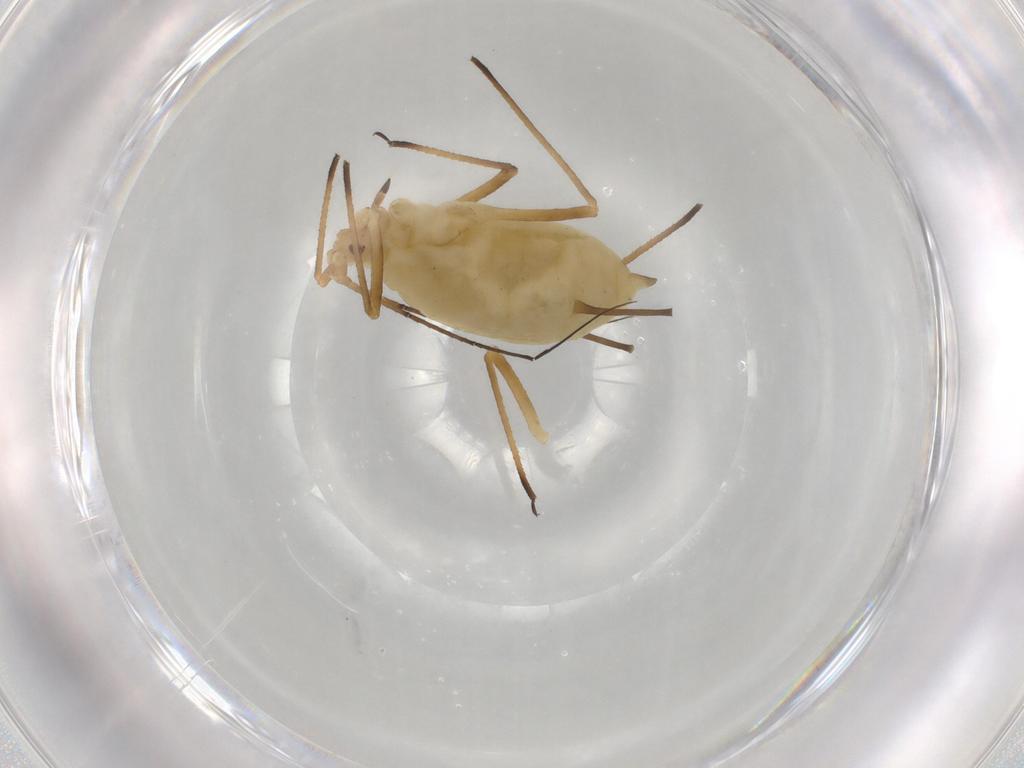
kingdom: Animalia
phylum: Arthropoda
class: Insecta
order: Hemiptera
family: Aphididae
